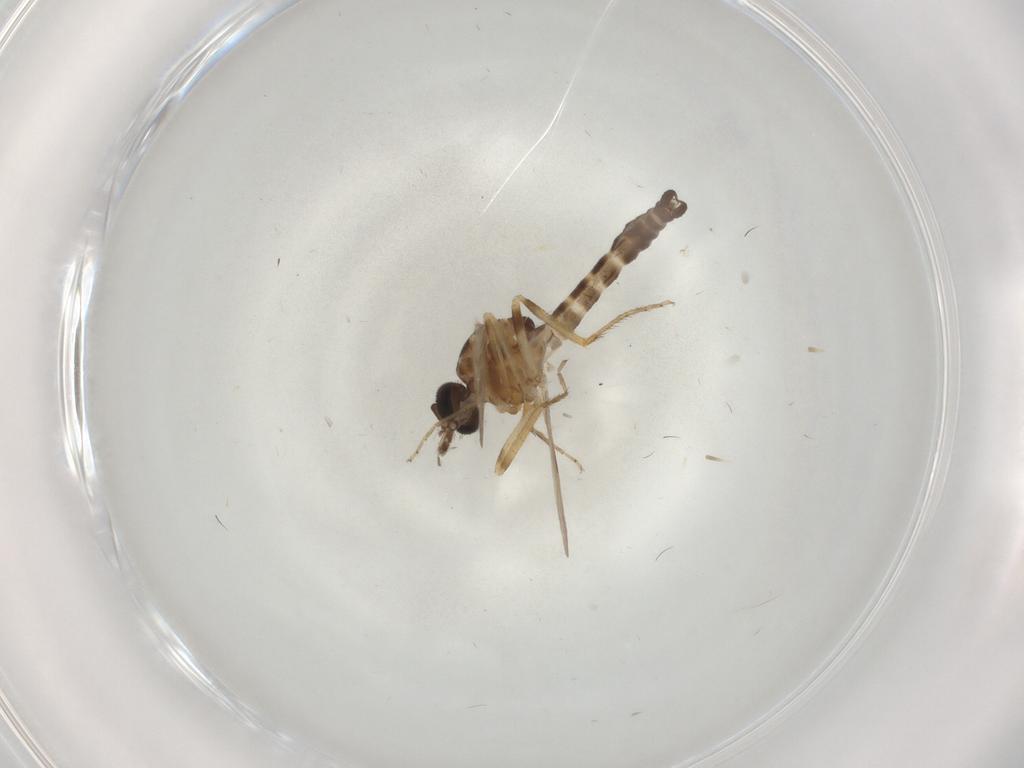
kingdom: Animalia
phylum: Arthropoda
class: Insecta
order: Diptera
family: Ceratopogonidae
